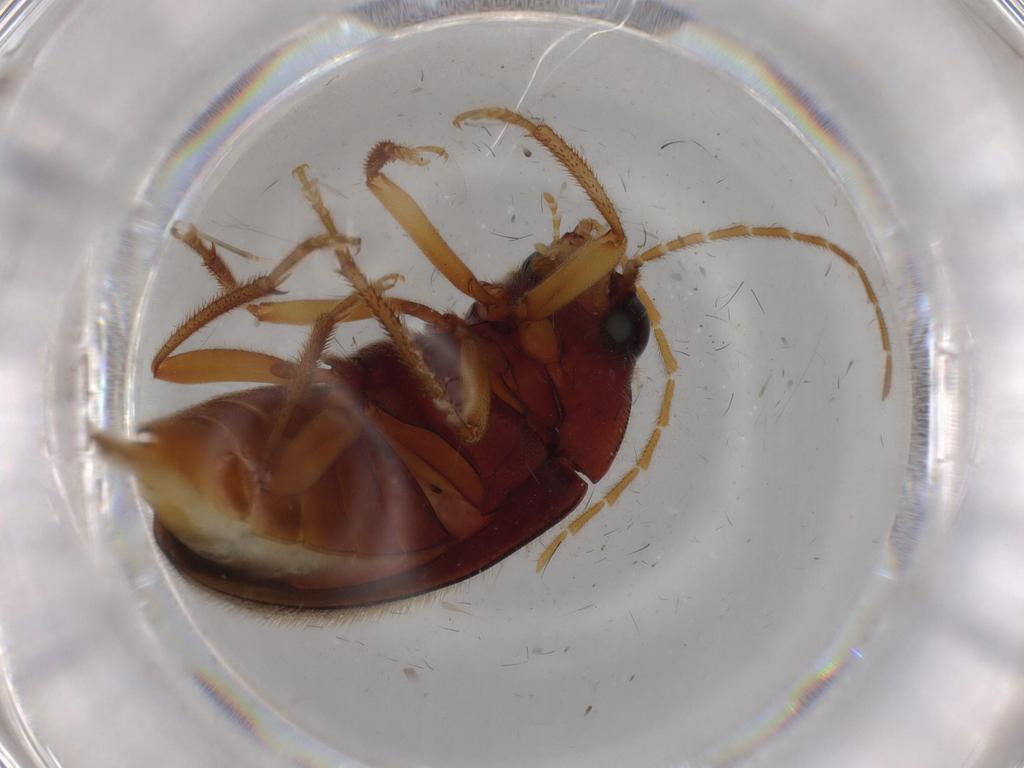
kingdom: Animalia
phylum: Arthropoda
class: Insecta
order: Coleoptera
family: Ptilodactylidae
